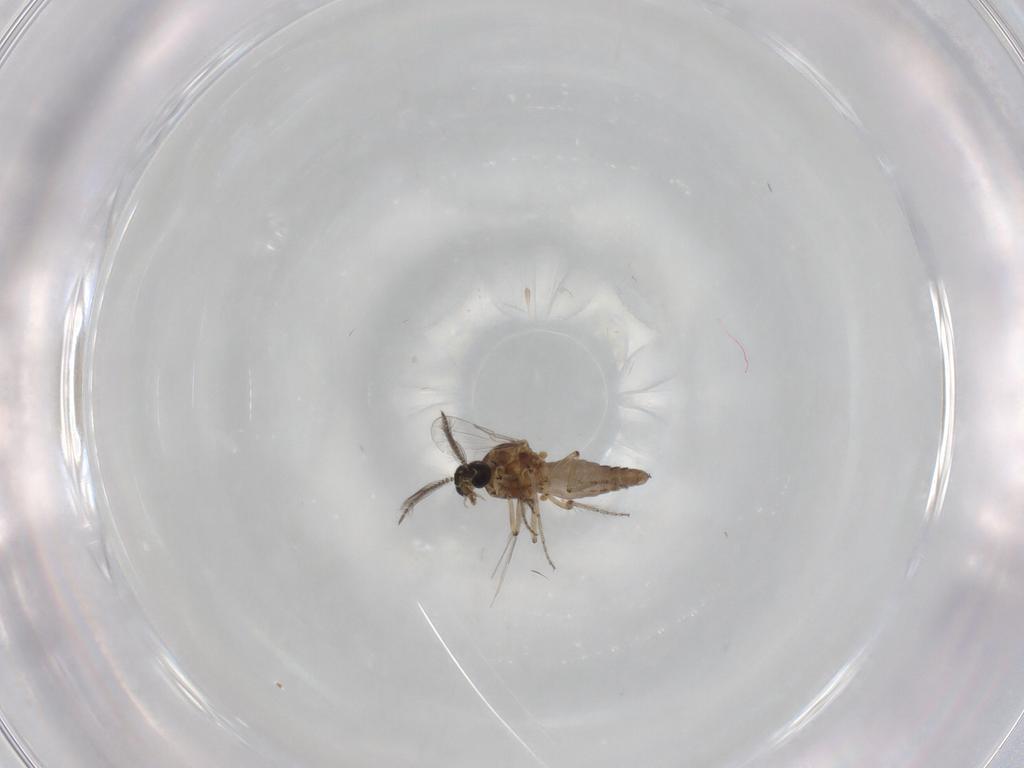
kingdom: Animalia
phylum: Arthropoda
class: Insecta
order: Diptera
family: Ceratopogonidae
